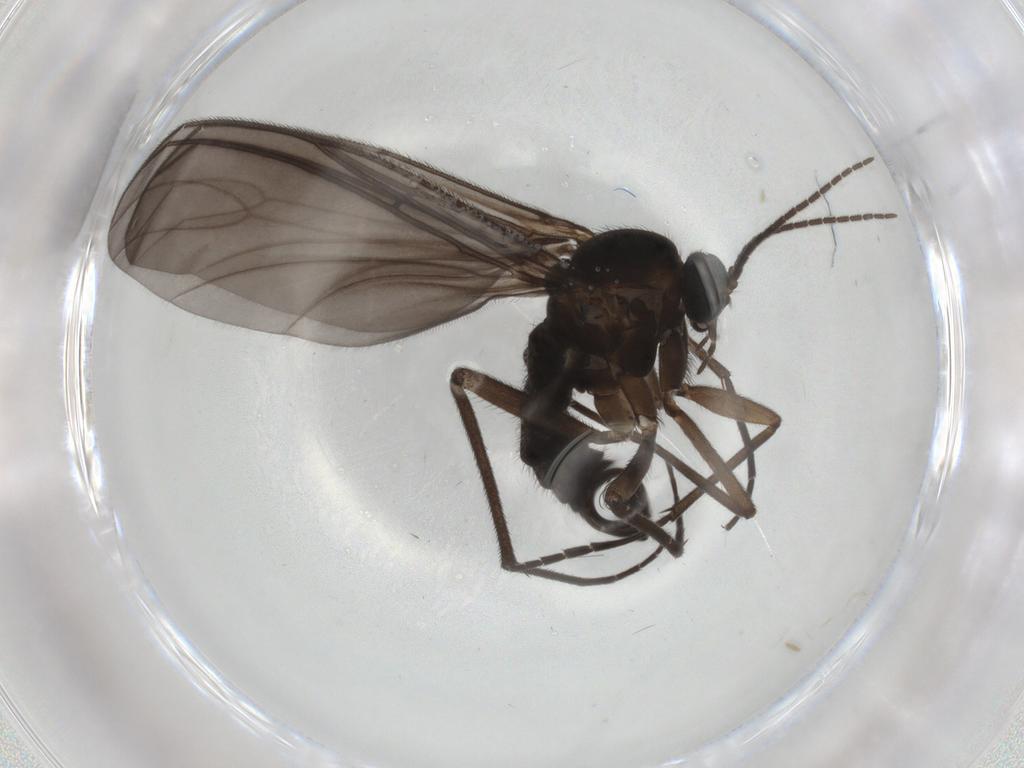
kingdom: Animalia
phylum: Arthropoda
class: Insecta
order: Diptera
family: Sciaridae
